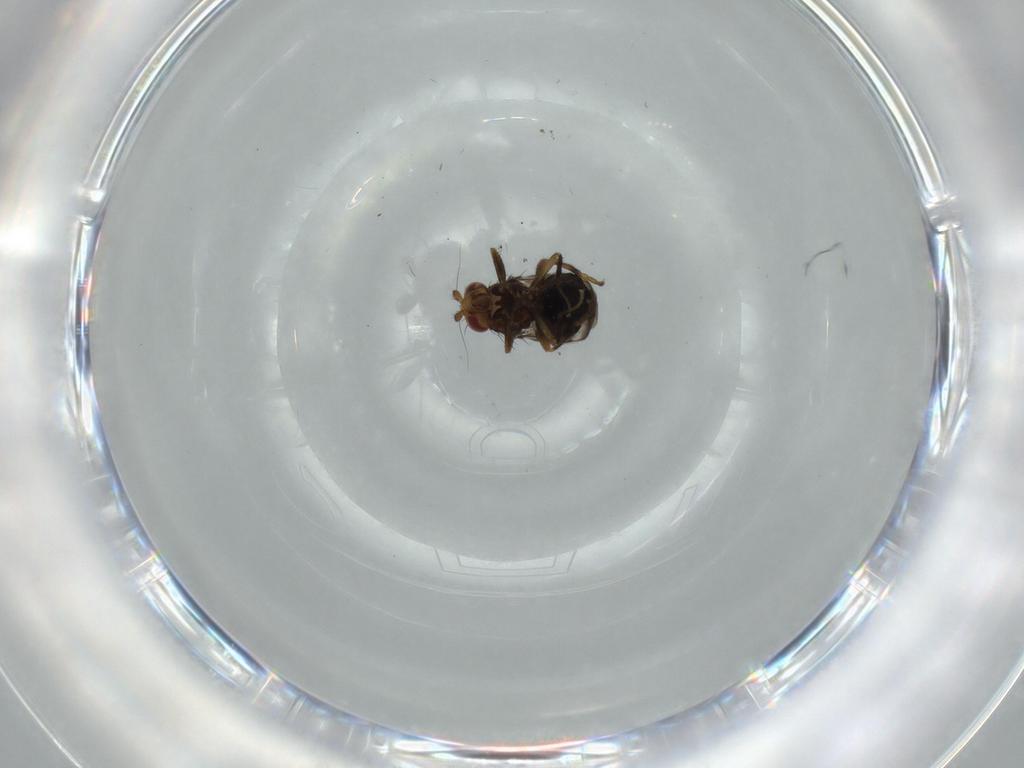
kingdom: Animalia
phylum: Arthropoda
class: Insecta
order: Diptera
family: Sphaeroceridae
